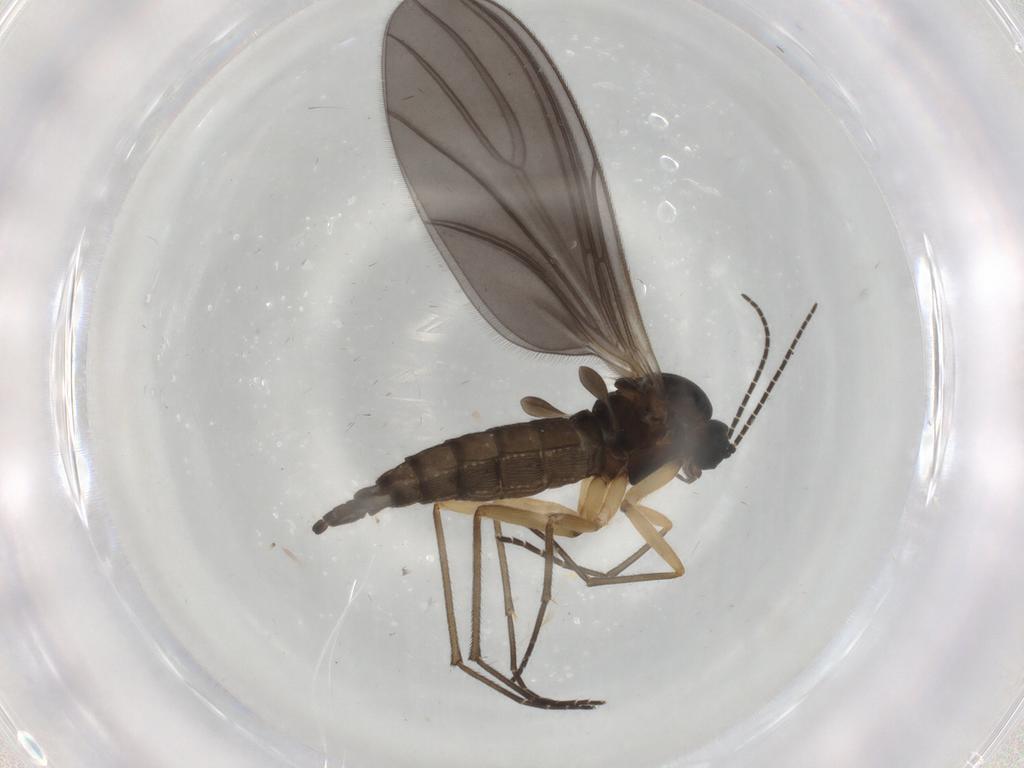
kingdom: Animalia
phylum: Arthropoda
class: Insecta
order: Diptera
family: Sciaridae
